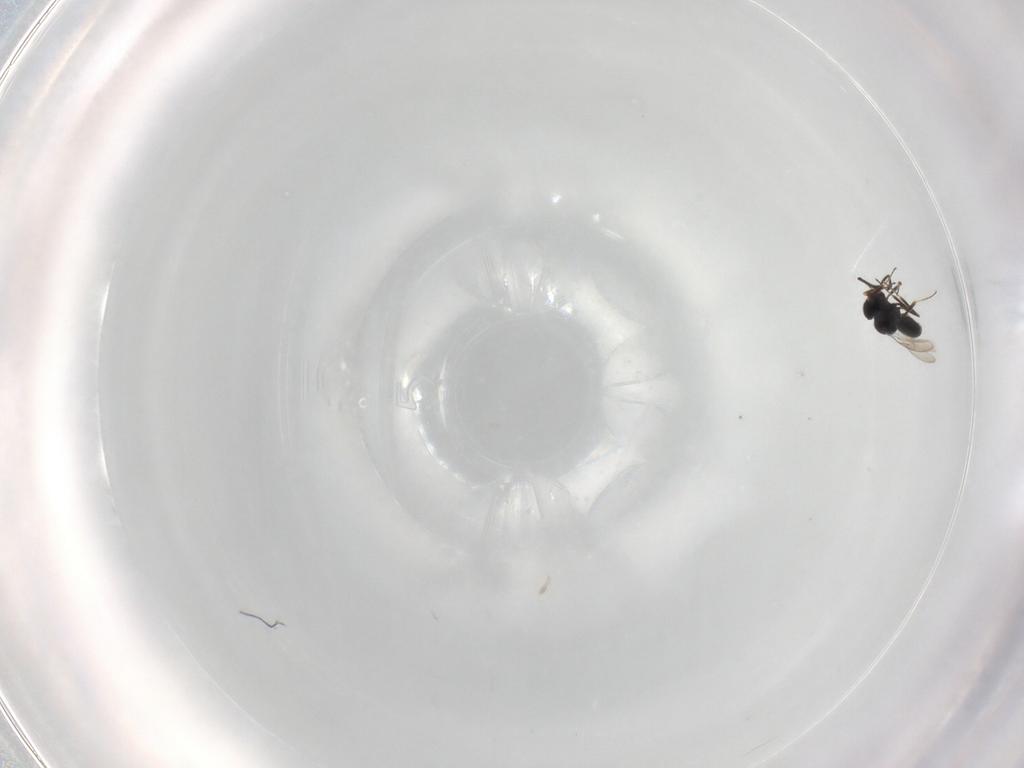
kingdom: Animalia
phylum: Arthropoda
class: Insecta
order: Hymenoptera
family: Scelionidae
